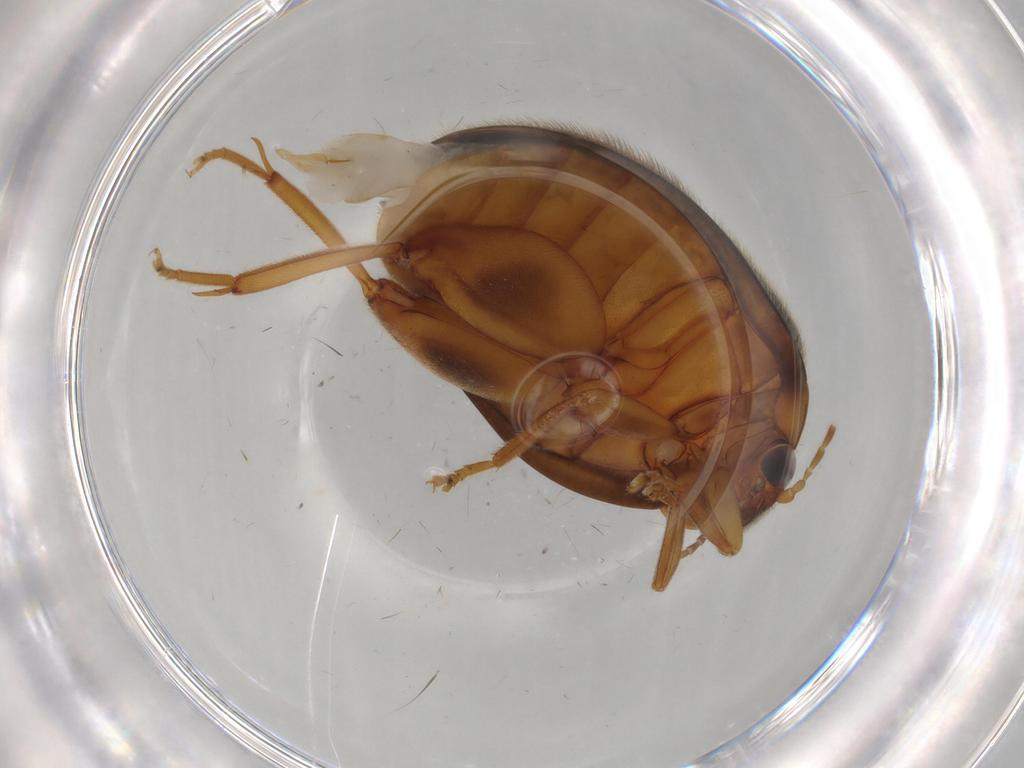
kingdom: Animalia
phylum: Arthropoda
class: Insecta
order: Coleoptera
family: Scirtidae
